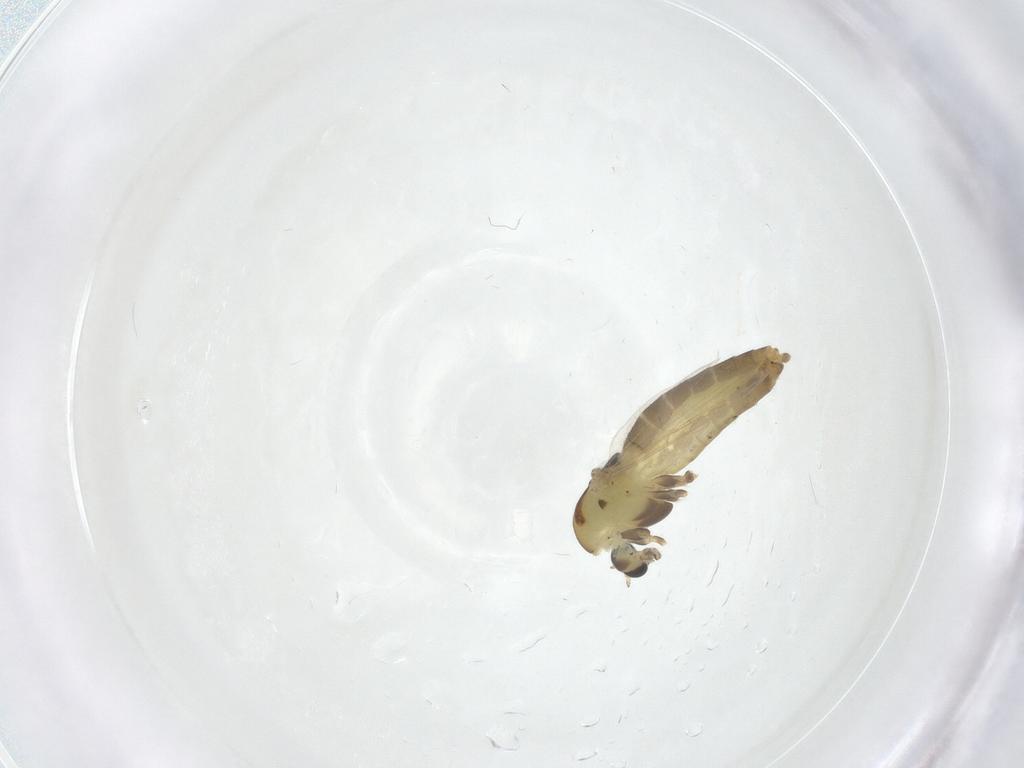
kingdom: Animalia
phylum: Arthropoda
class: Insecta
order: Diptera
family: Chironomidae
